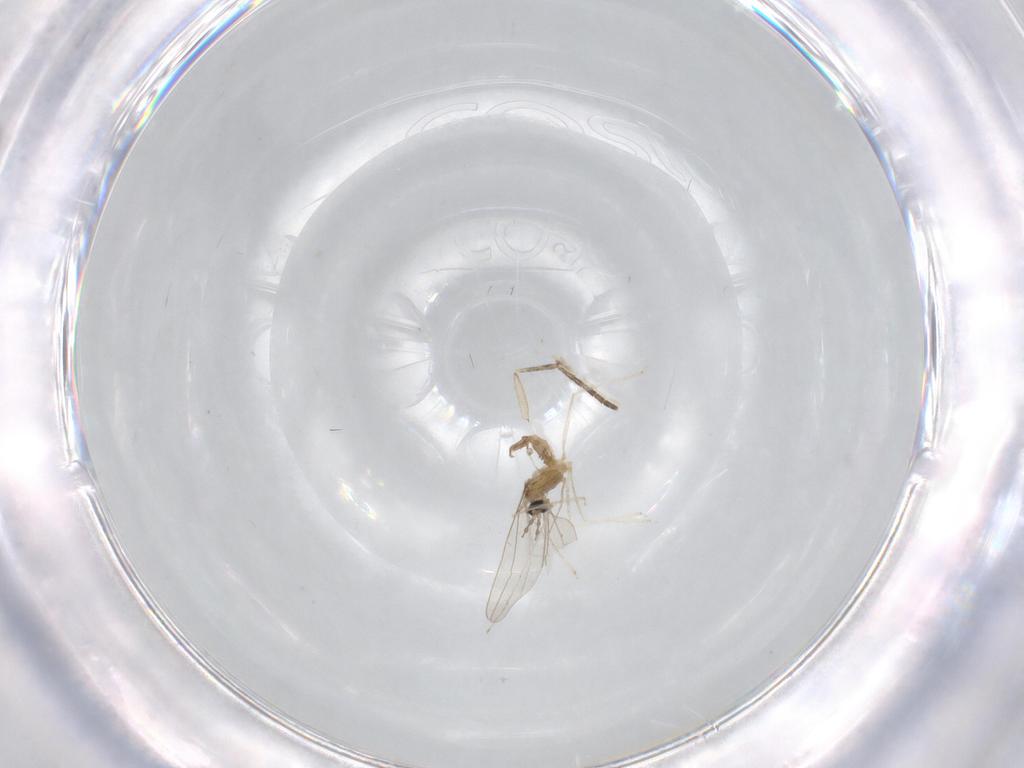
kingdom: Animalia
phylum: Arthropoda
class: Insecta
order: Diptera
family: Cecidomyiidae
